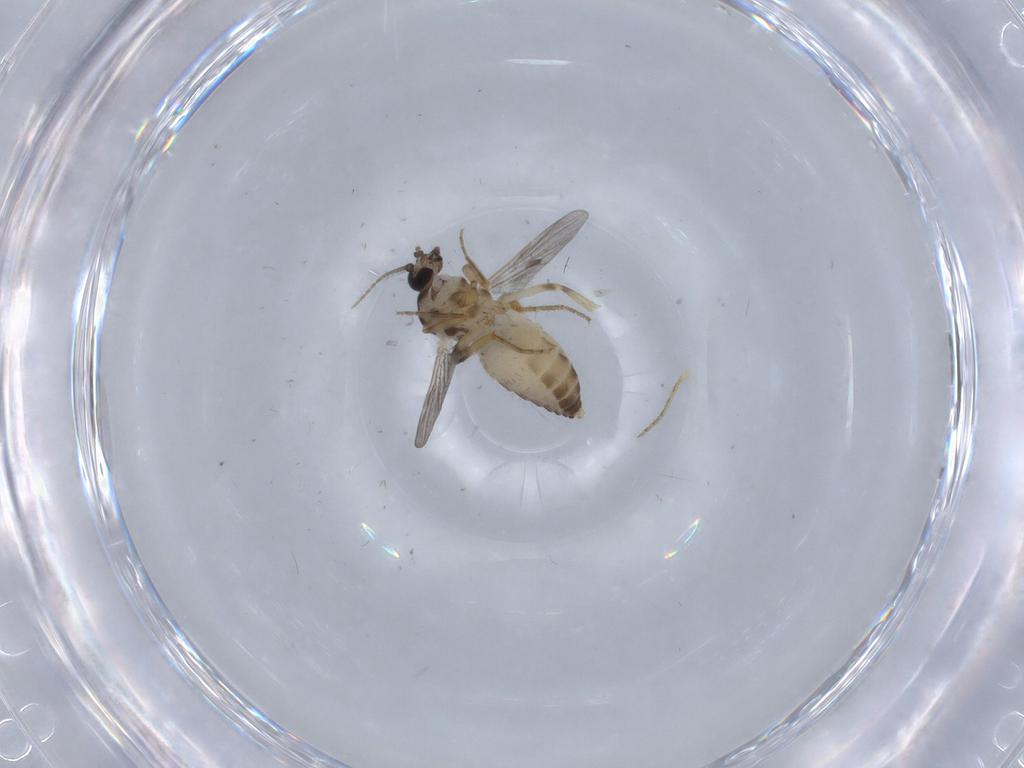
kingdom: Animalia
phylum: Arthropoda
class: Insecta
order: Diptera
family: Ceratopogonidae
